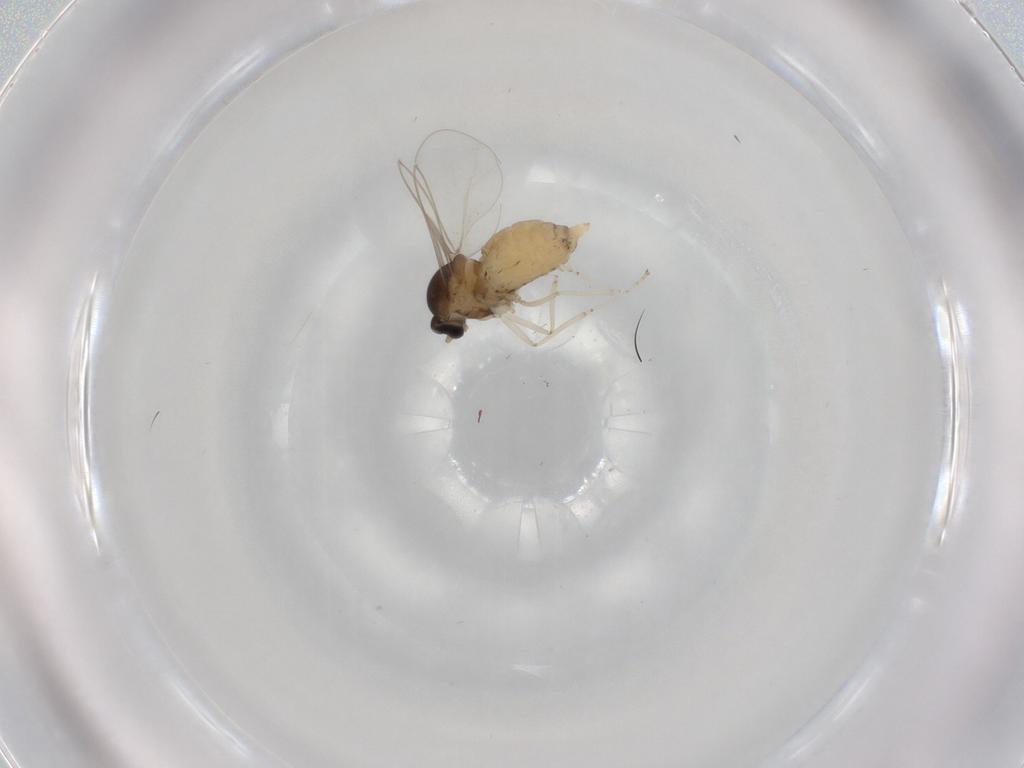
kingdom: Animalia
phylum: Arthropoda
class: Insecta
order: Diptera
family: Cecidomyiidae
